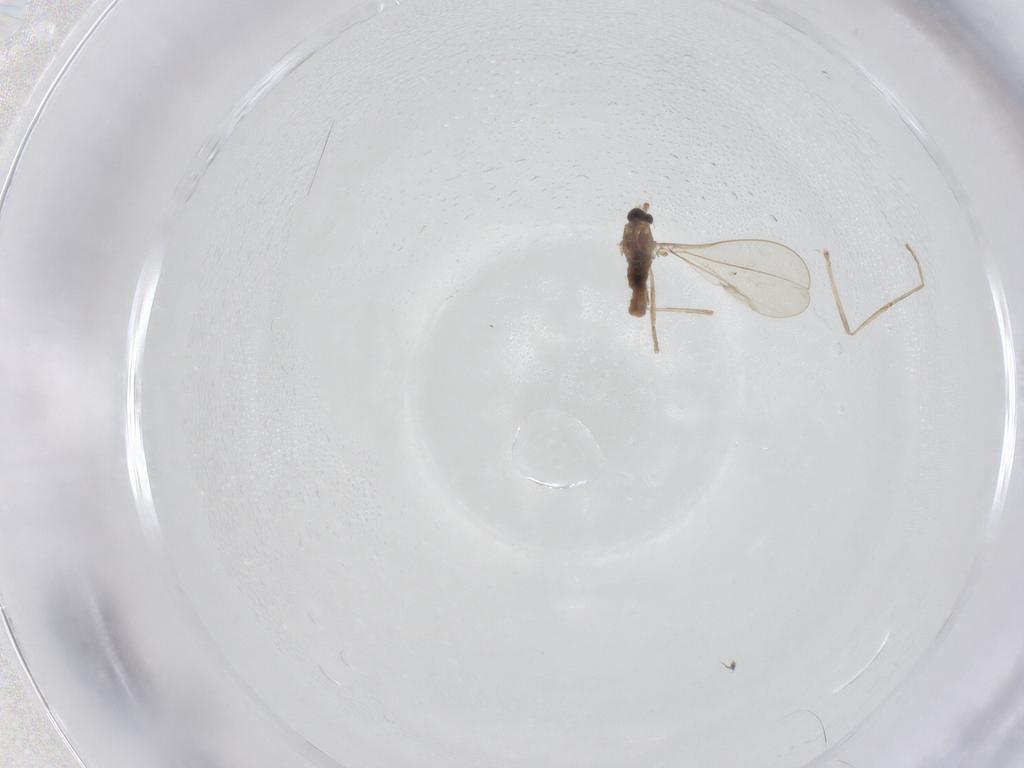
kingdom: Animalia
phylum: Arthropoda
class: Insecta
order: Diptera
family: Cecidomyiidae
